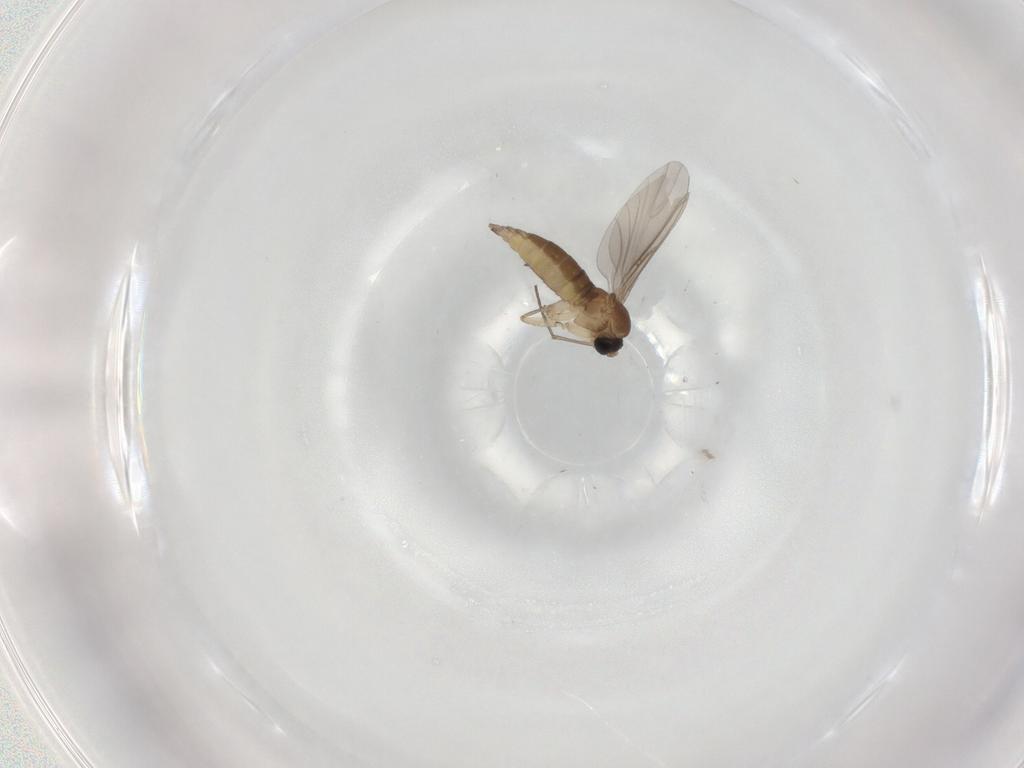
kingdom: Animalia
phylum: Arthropoda
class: Insecta
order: Diptera
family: Sciaridae
